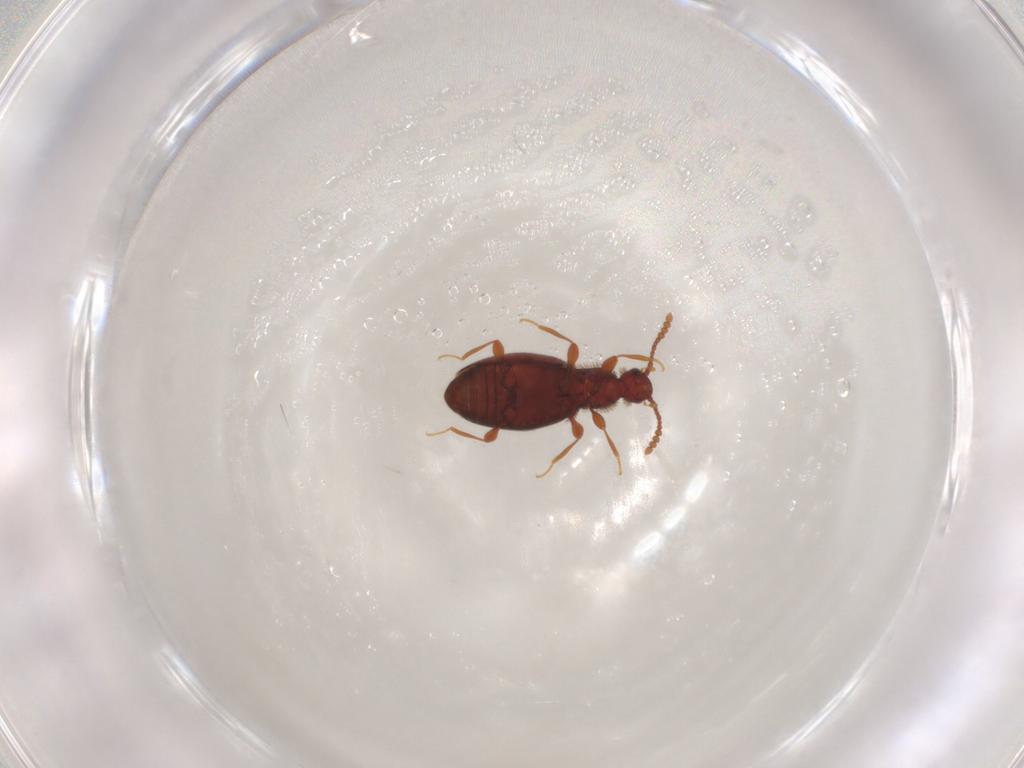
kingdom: Animalia
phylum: Arthropoda
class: Insecta
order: Coleoptera
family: Staphylinidae
